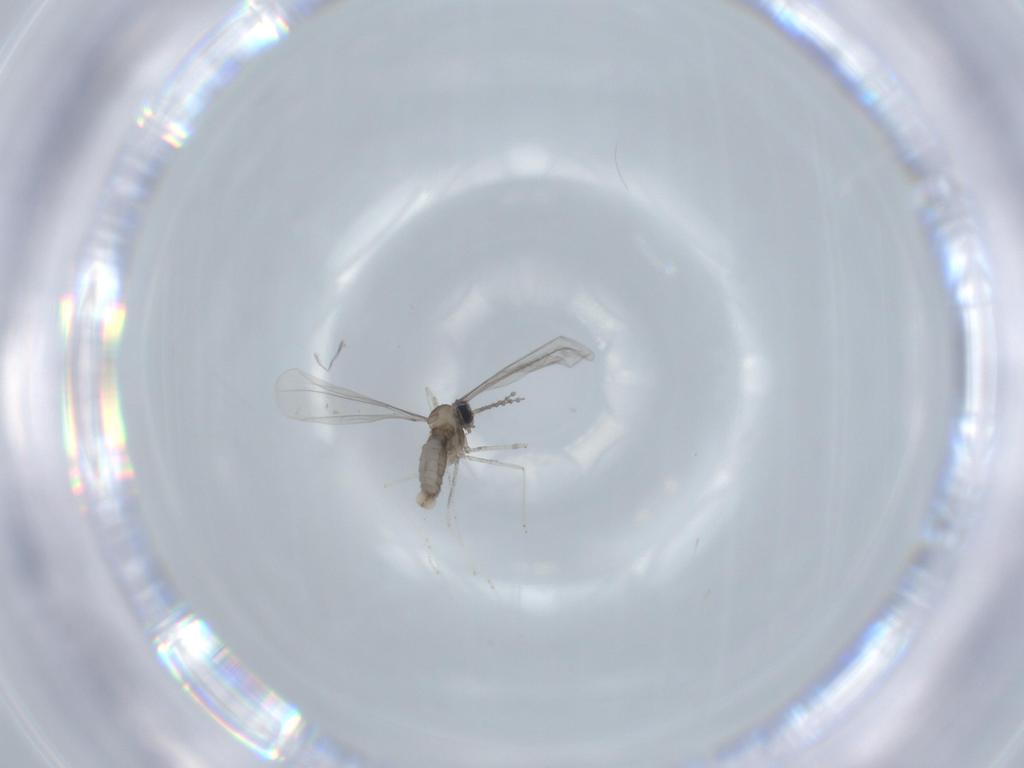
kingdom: Animalia
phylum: Arthropoda
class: Insecta
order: Diptera
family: Cecidomyiidae
